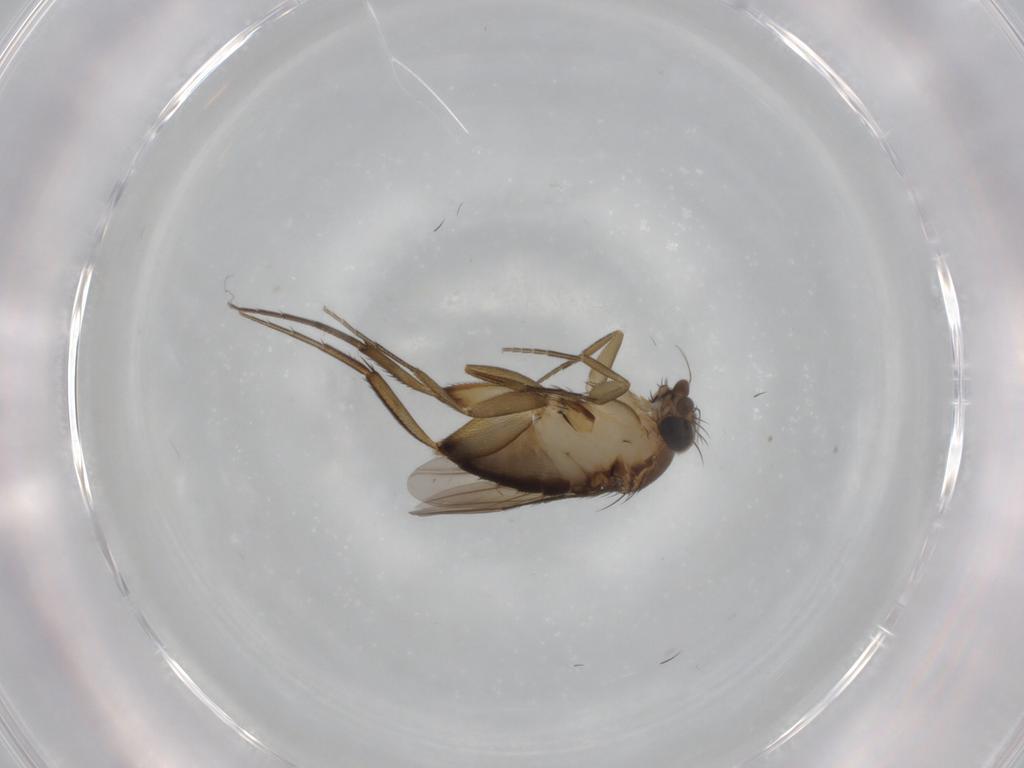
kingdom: Animalia
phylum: Arthropoda
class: Insecta
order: Diptera
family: Phoridae
